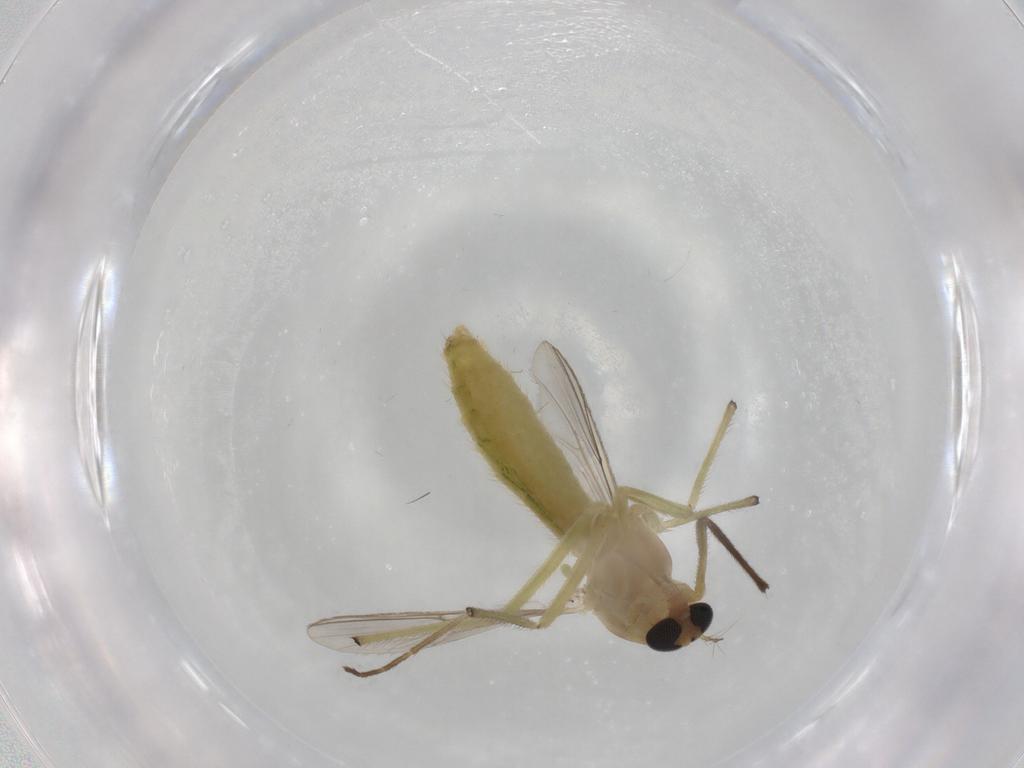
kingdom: Animalia
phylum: Arthropoda
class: Insecta
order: Diptera
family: Chironomidae
